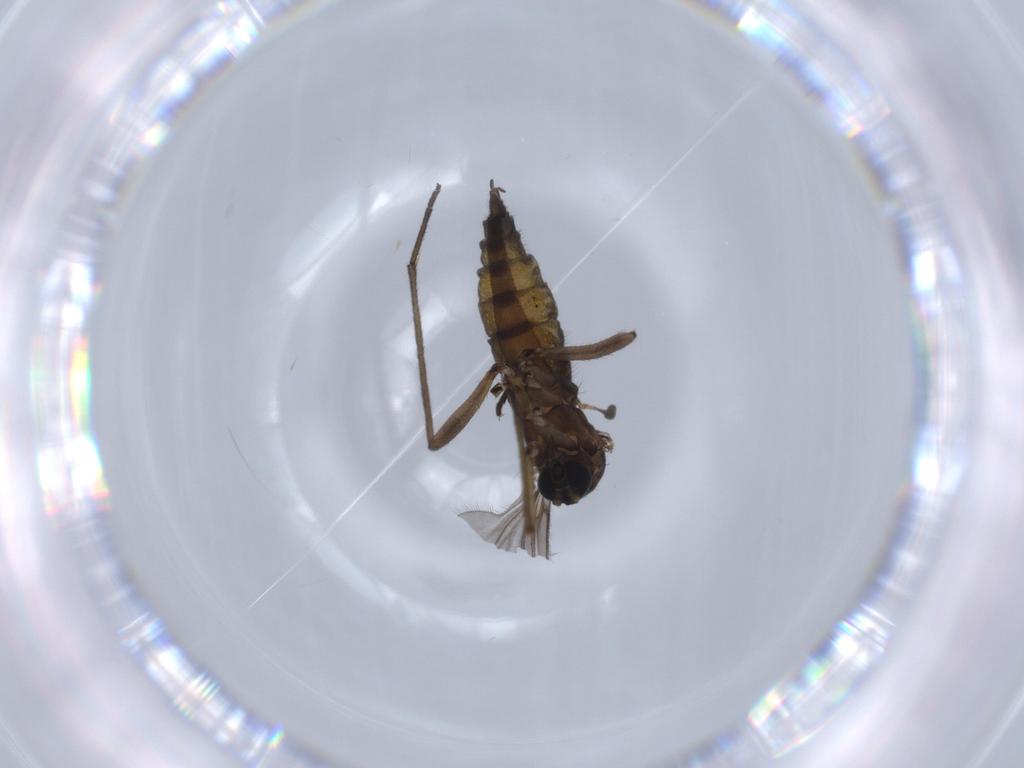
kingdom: Animalia
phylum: Arthropoda
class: Insecta
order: Diptera
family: Sciaridae
